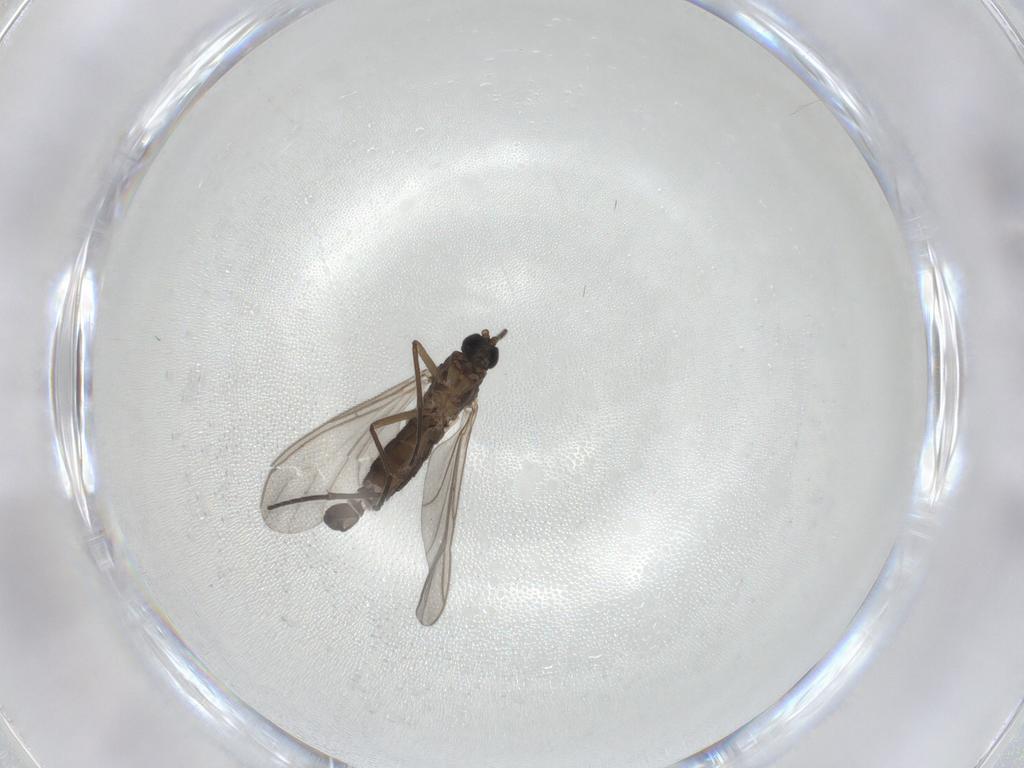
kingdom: Animalia
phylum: Arthropoda
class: Insecta
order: Diptera
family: Sciaridae
